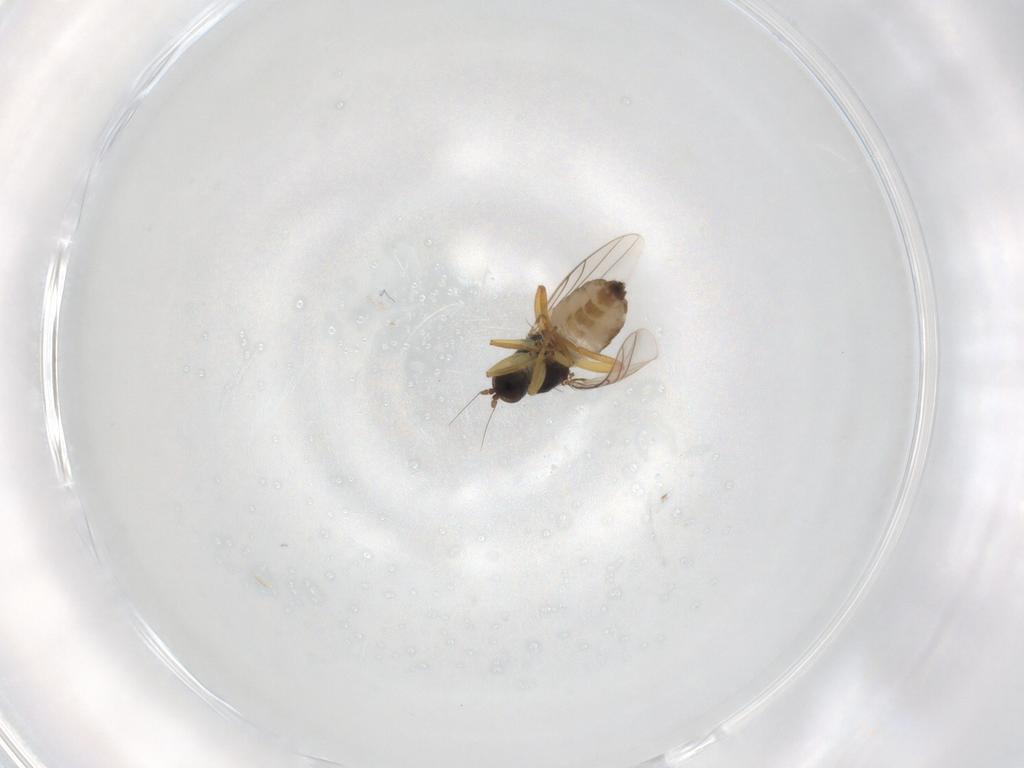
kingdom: Animalia
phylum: Arthropoda
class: Insecta
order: Diptera
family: Hybotidae
